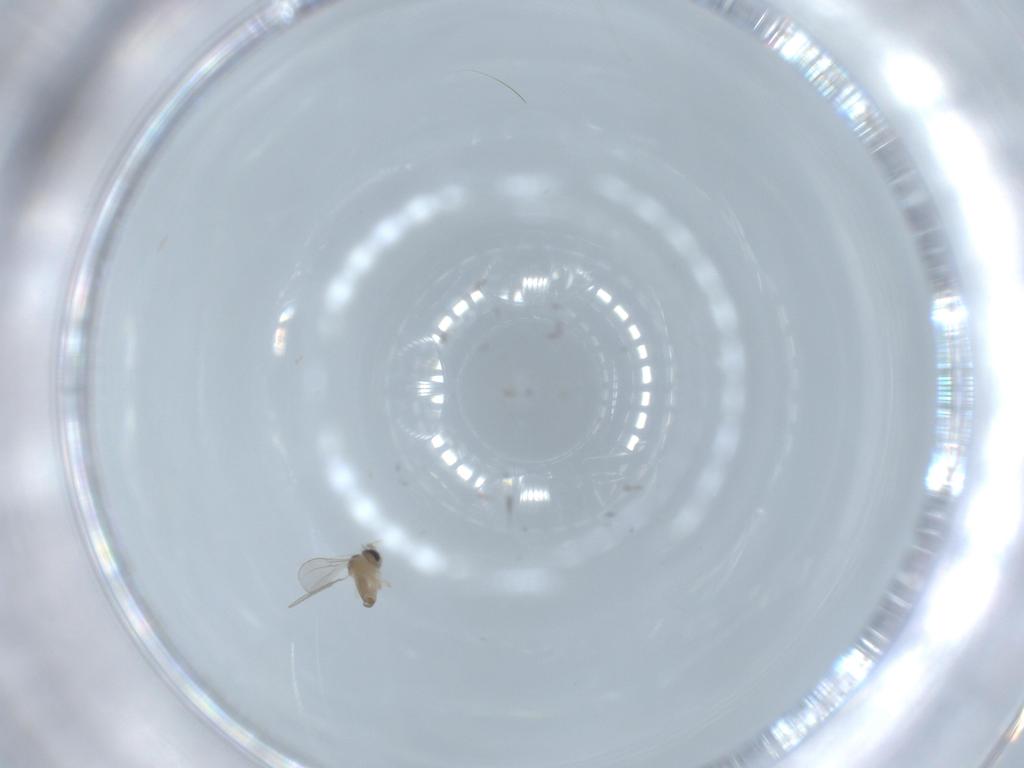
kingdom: Animalia
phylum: Arthropoda
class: Insecta
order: Diptera
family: Cecidomyiidae
